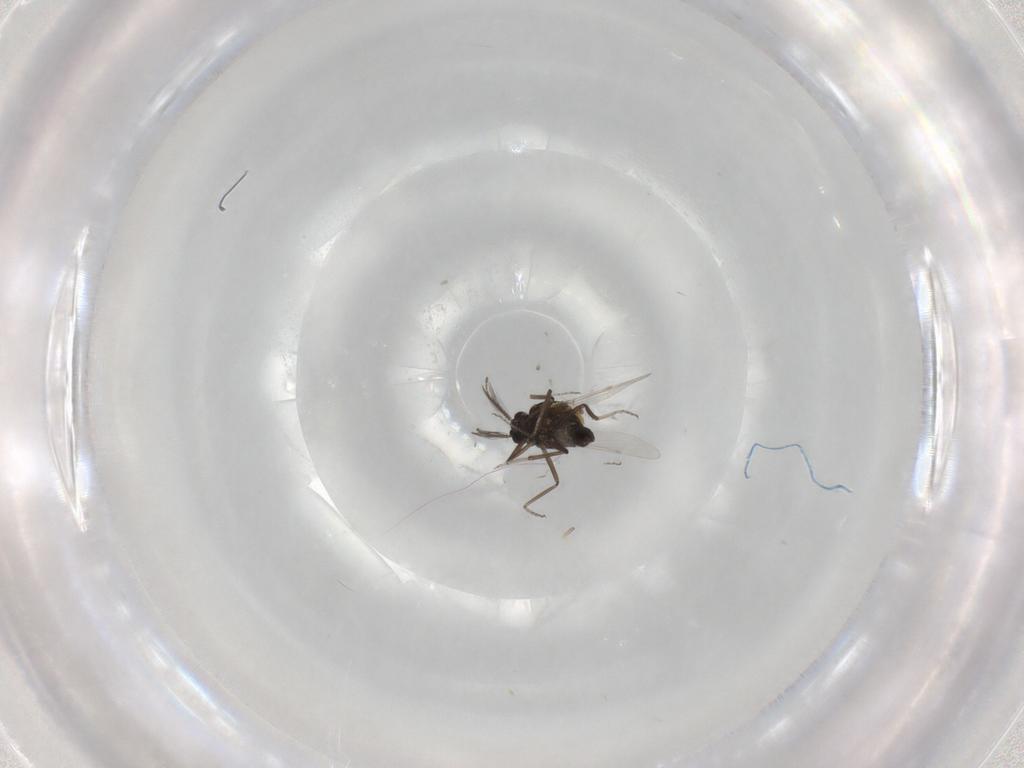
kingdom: Animalia
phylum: Arthropoda
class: Insecta
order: Diptera
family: Ceratopogonidae
